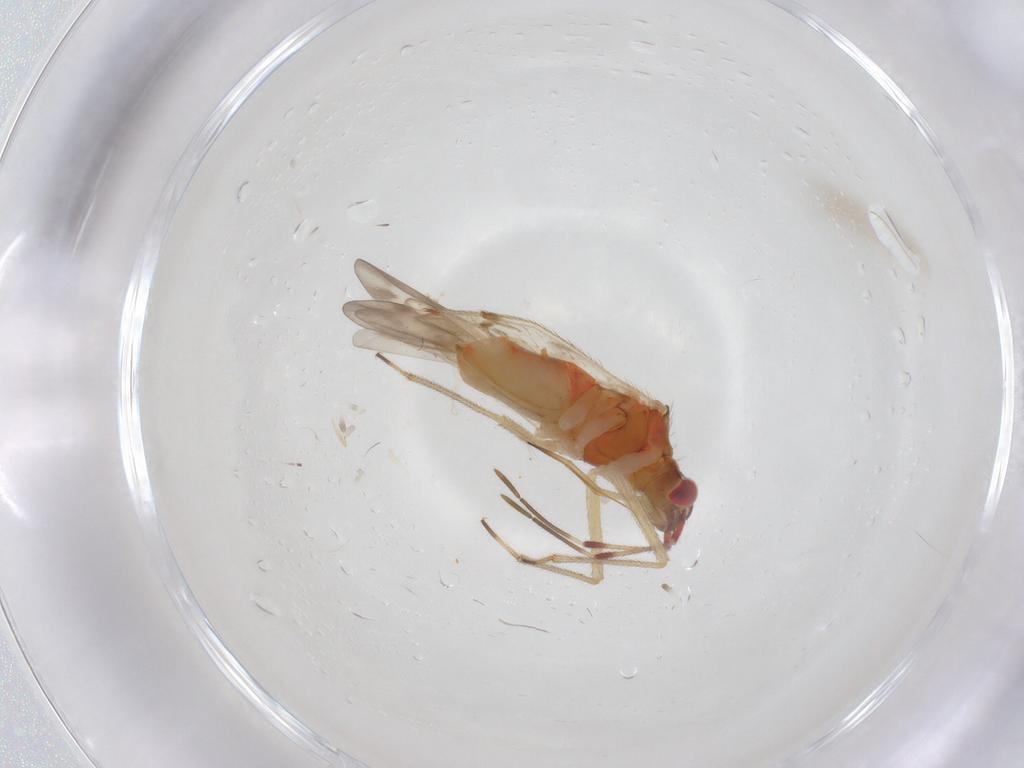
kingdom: Animalia
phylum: Arthropoda
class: Insecta
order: Hemiptera
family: Miridae
